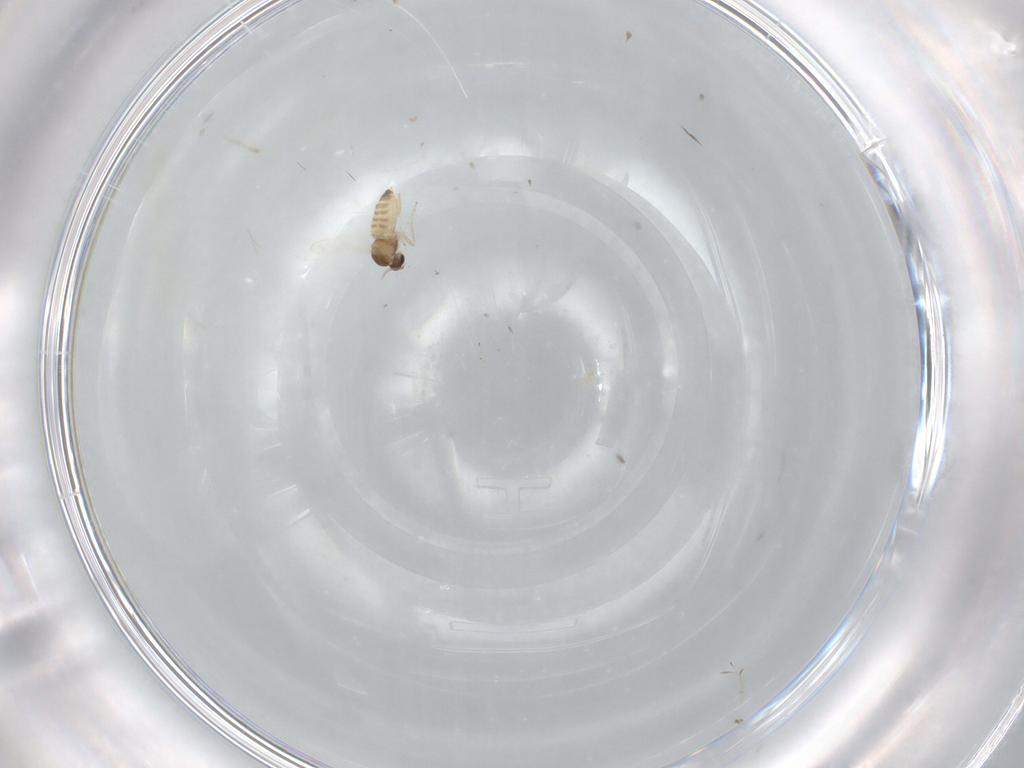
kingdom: Animalia
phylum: Arthropoda
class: Insecta
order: Diptera
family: Cecidomyiidae
